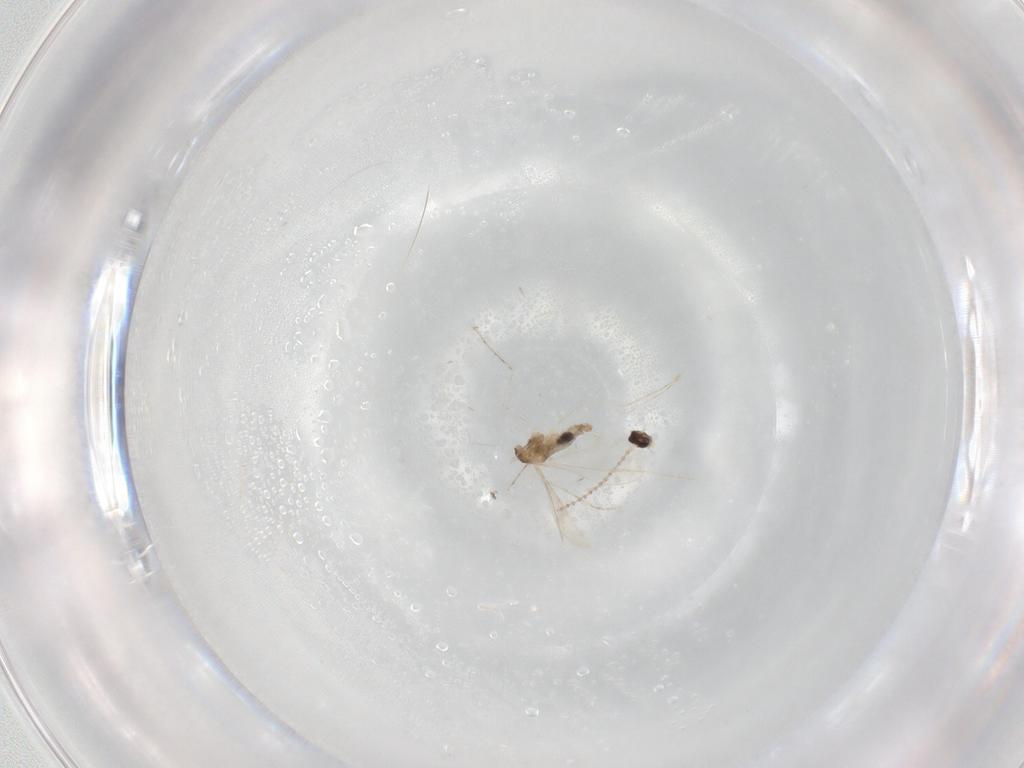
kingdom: Animalia
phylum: Arthropoda
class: Insecta
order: Diptera
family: Cecidomyiidae
